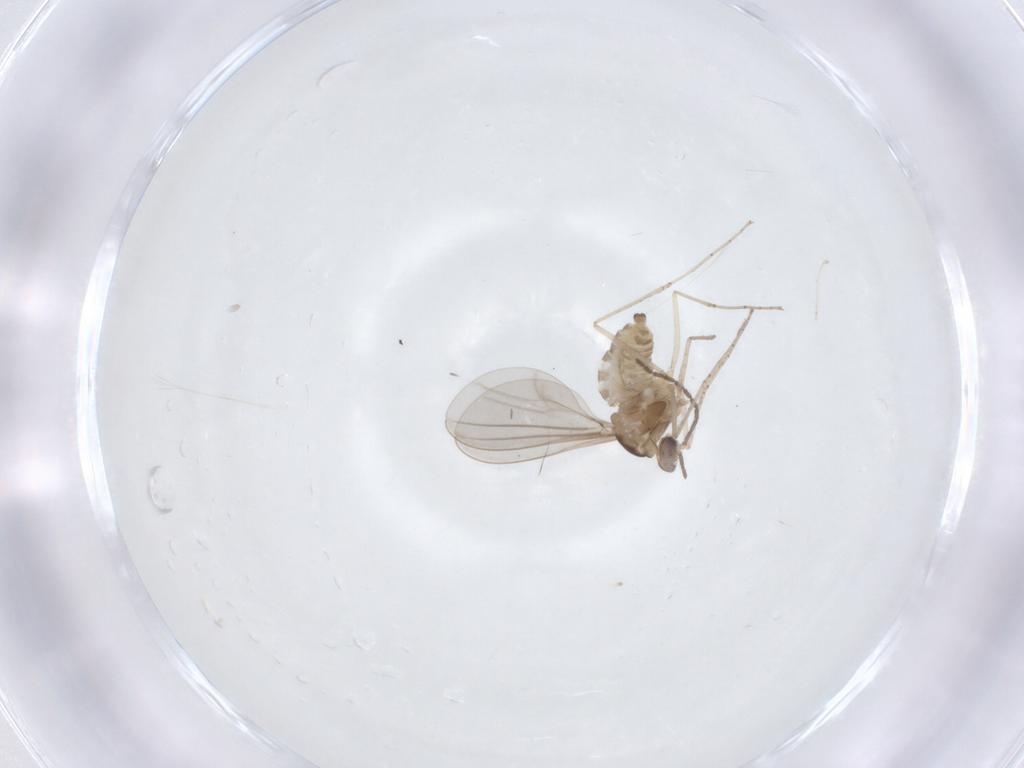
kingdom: Animalia
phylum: Arthropoda
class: Insecta
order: Diptera
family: Cecidomyiidae
